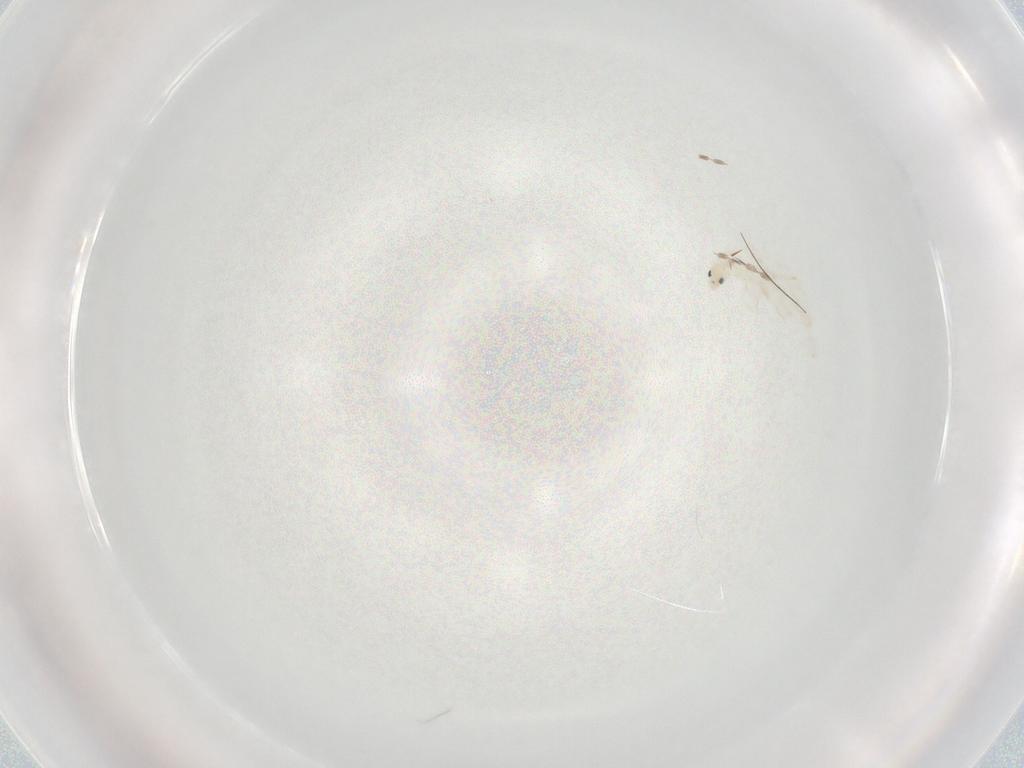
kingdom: Animalia
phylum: Arthropoda
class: Collembola
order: Entomobryomorpha
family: Entomobryidae
